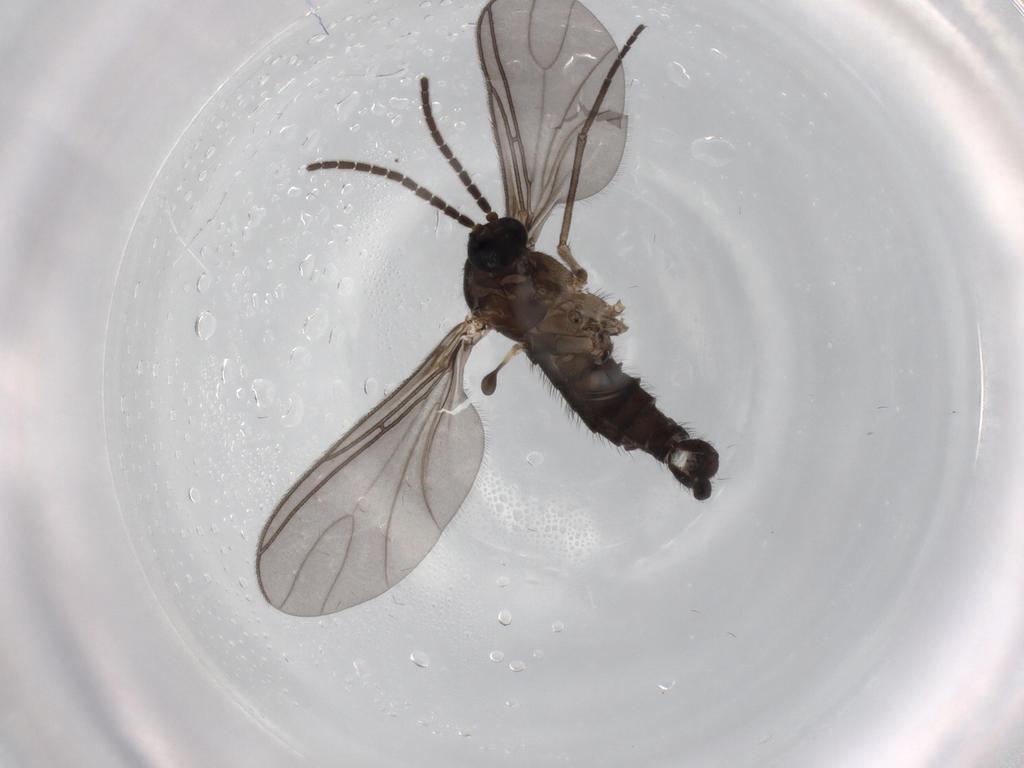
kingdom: Animalia
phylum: Arthropoda
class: Insecta
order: Diptera
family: Sciaridae
